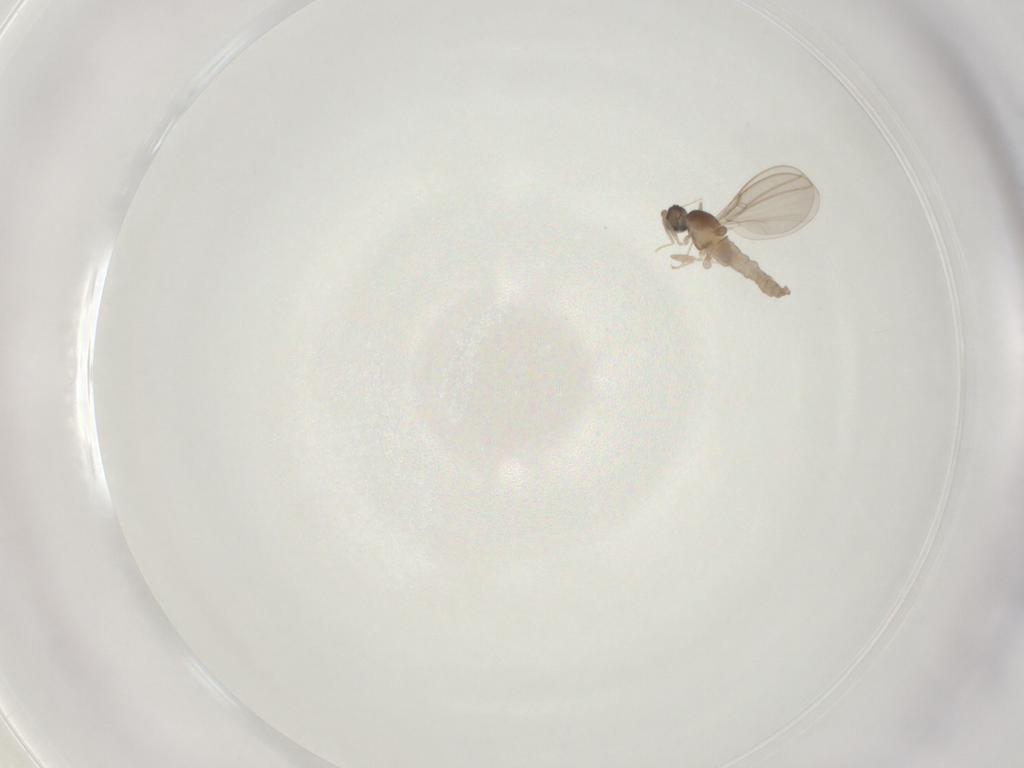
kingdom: Animalia
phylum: Arthropoda
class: Insecta
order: Diptera
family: Cecidomyiidae
